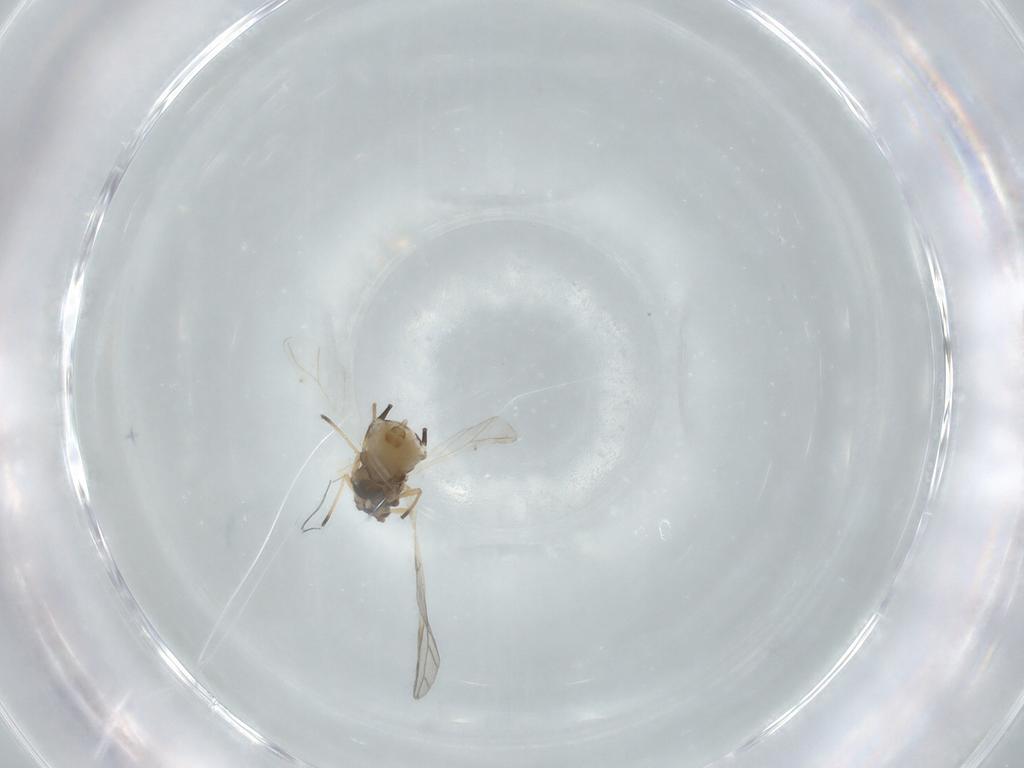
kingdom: Animalia
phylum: Arthropoda
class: Insecta
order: Hemiptera
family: Aphididae
